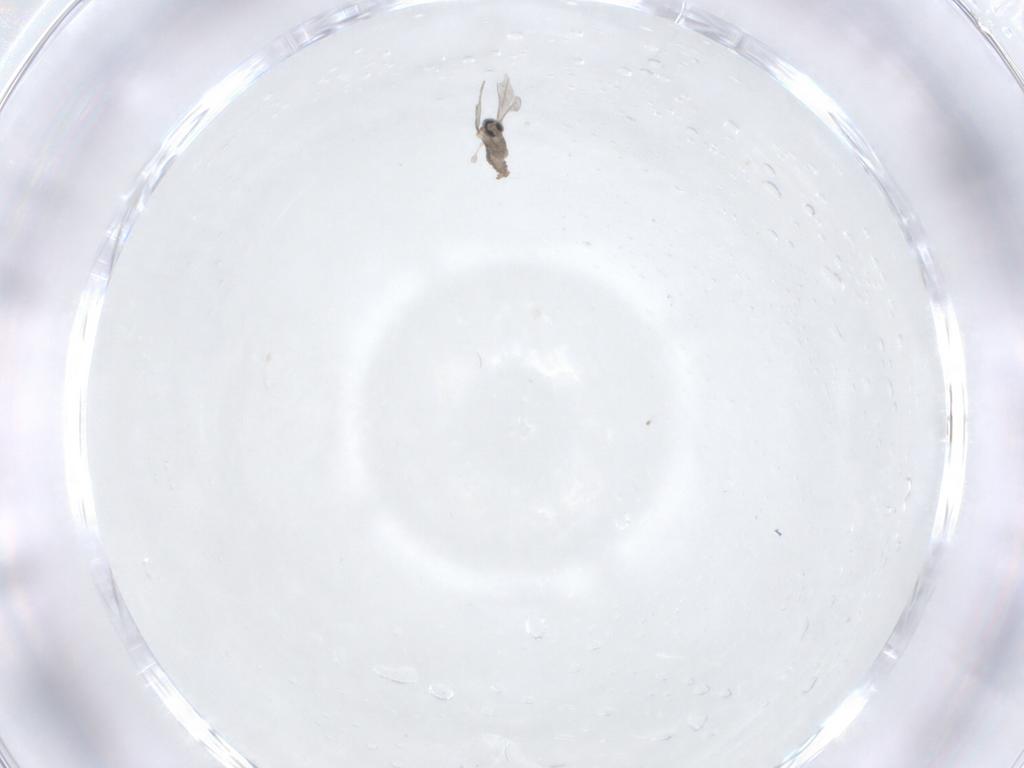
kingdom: Animalia
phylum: Arthropoda
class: Insecta
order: Diptera
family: Cecidomyiidae
